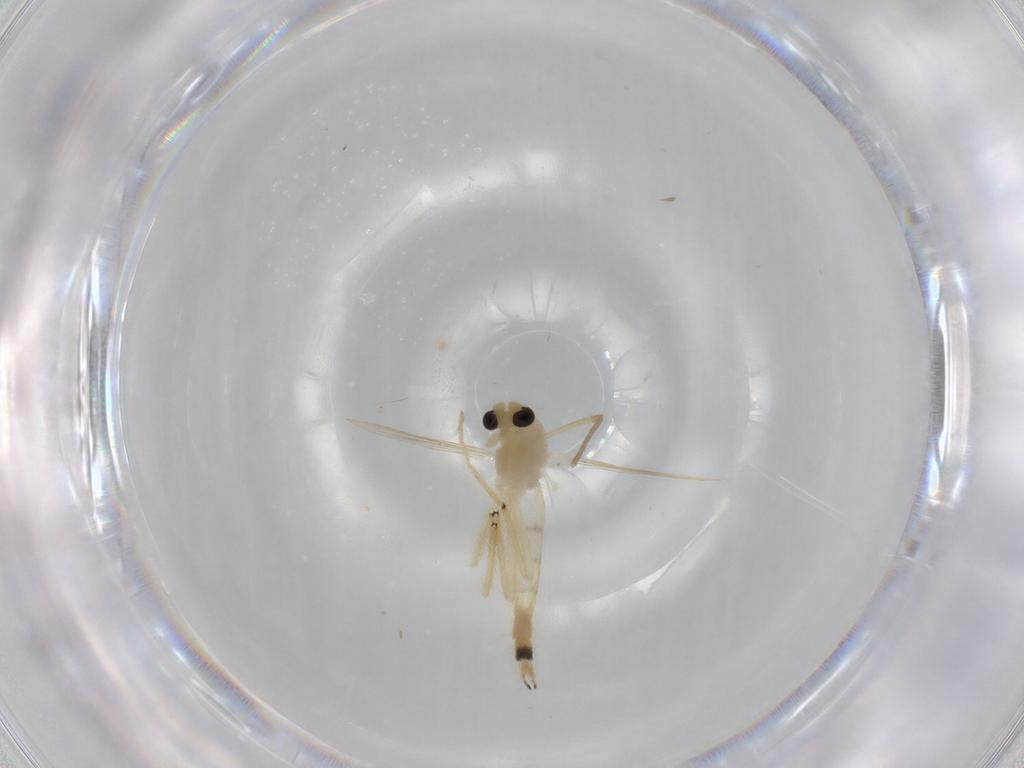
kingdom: Animalia
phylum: Arthropoda
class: Insecta
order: Diptera
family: Chironomidae
